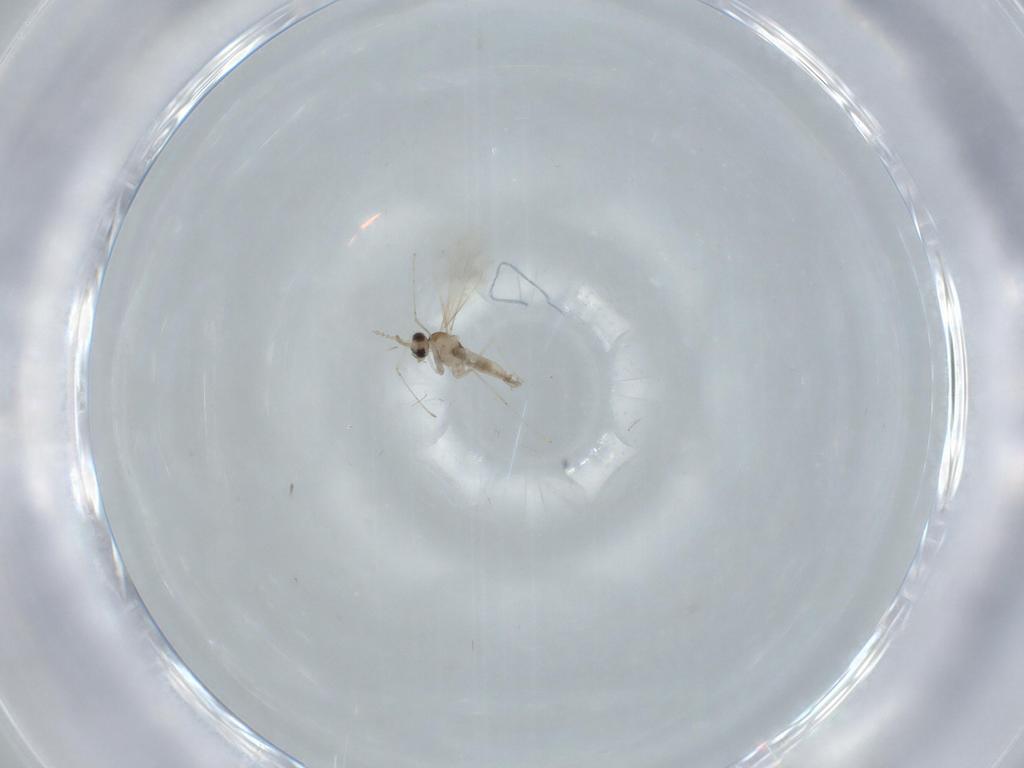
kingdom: Animalia
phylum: Arthropoda
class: Insecta
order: Diptera
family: Cecidomyiidae
